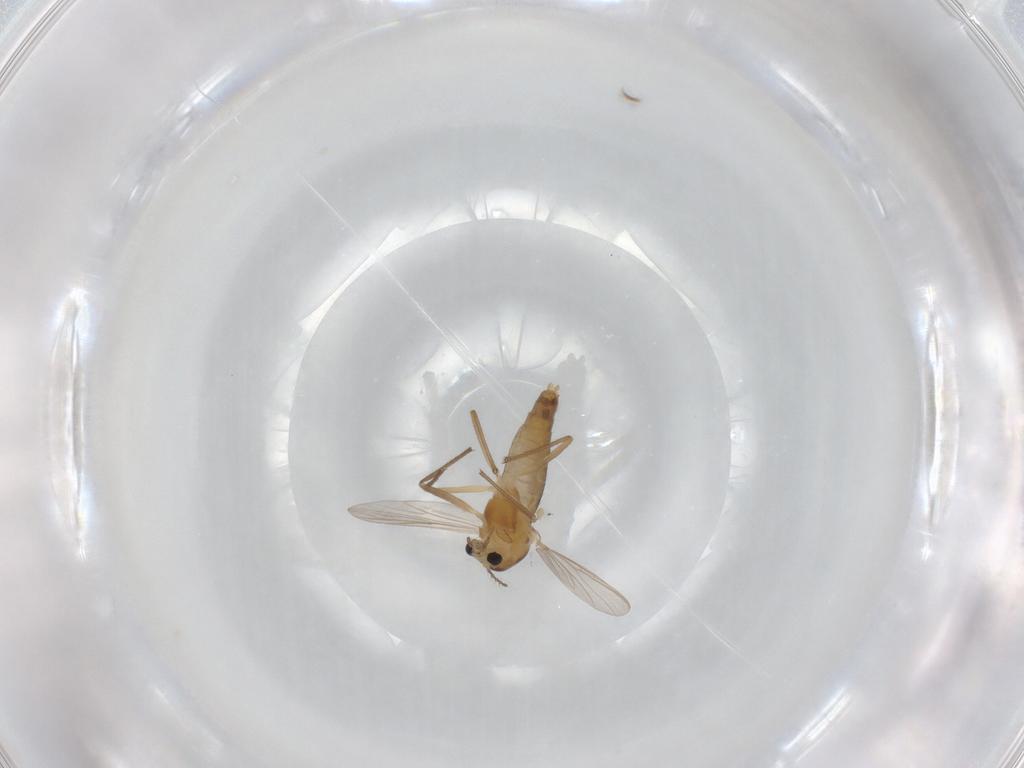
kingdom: Animalia
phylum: Arthropoda
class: Insecta
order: Diptera
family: Chironomidae
